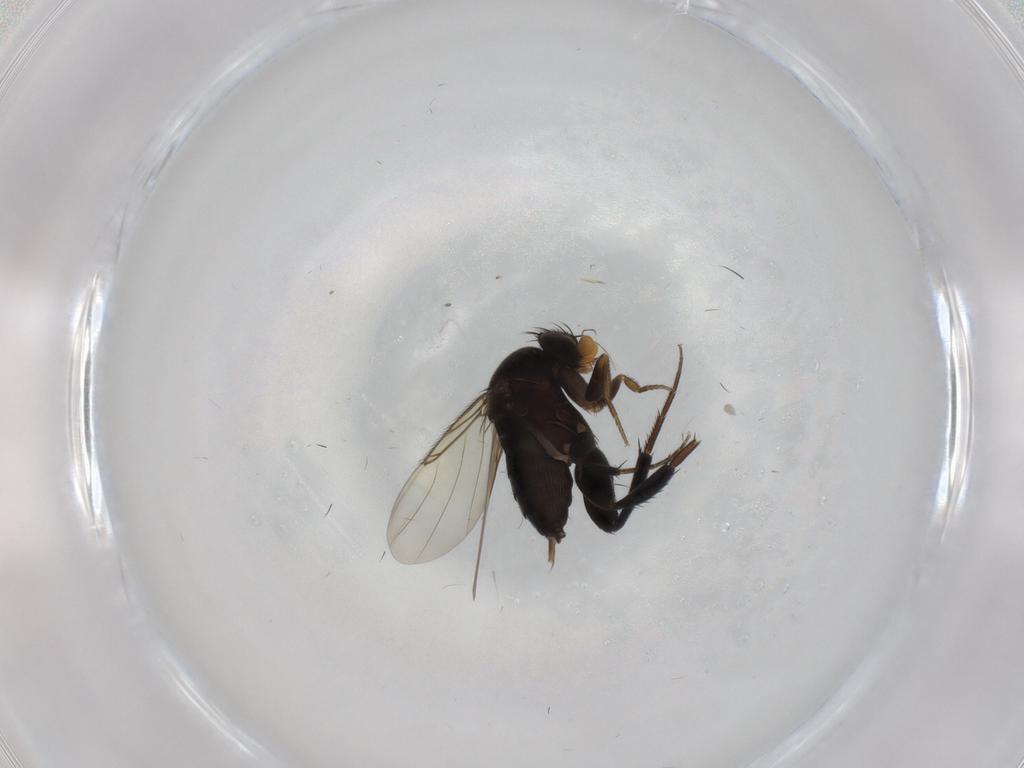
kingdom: Animalia
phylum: Arthropoda
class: Insecta
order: Diptera
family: Phoridae
